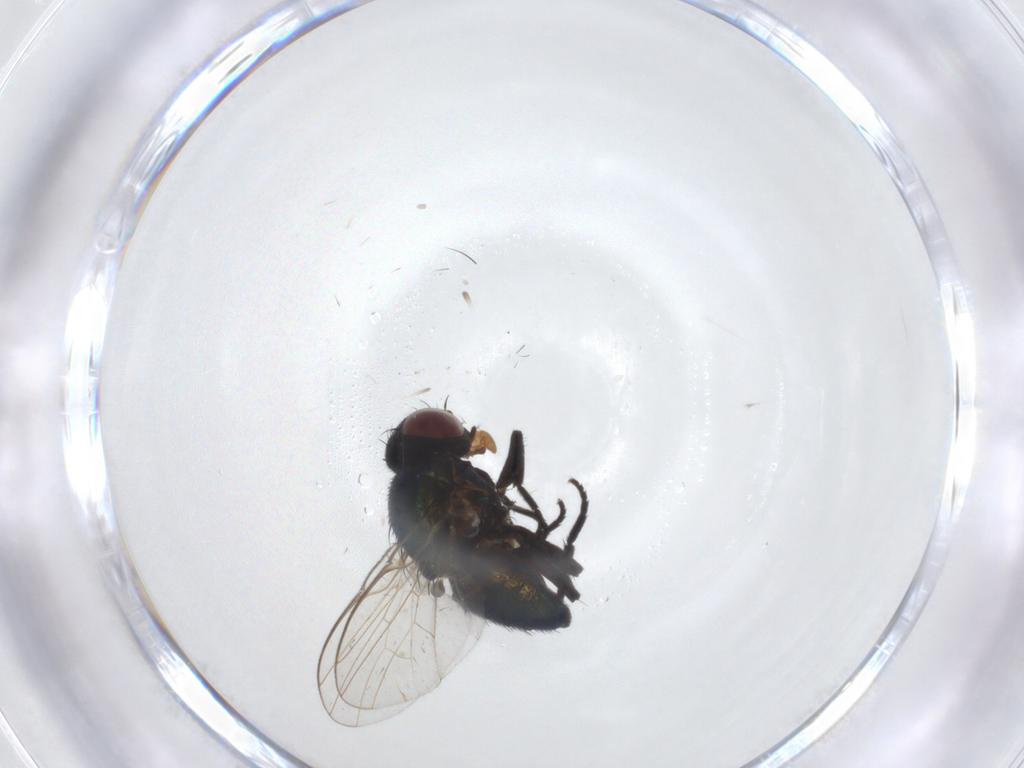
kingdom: Animalia
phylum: Arthropoda
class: Insecta
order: Diptera
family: Agromyzidae
